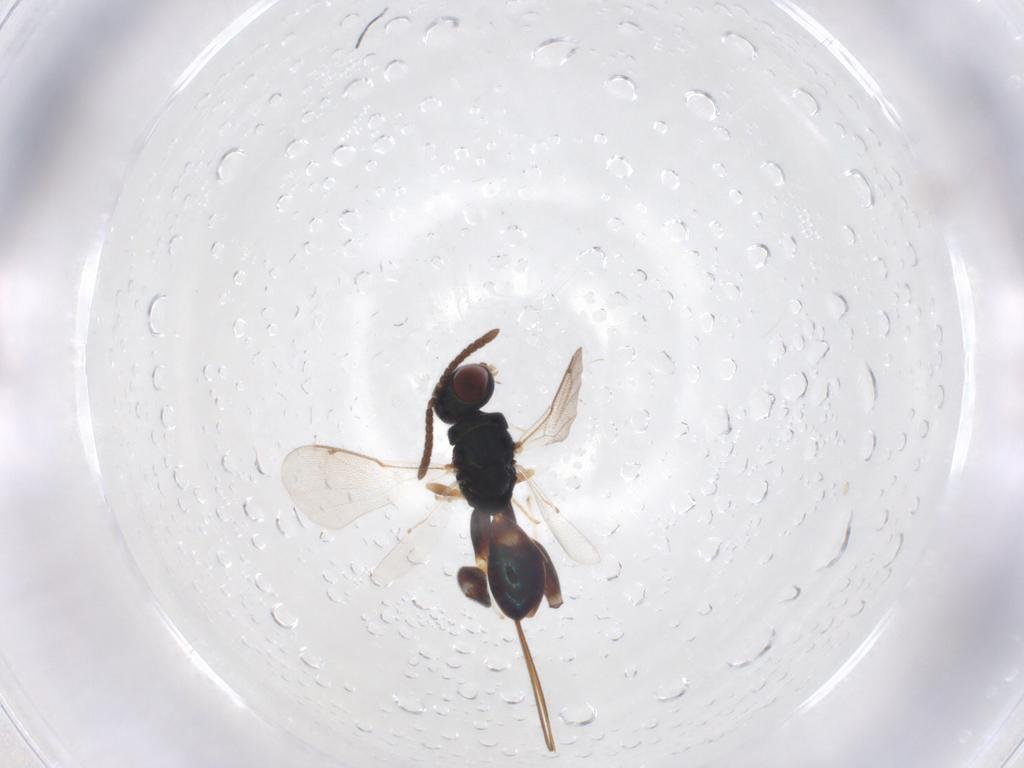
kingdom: Animalia
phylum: Arthropoda
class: Insecta
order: Hymenoptera
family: Torymidae
